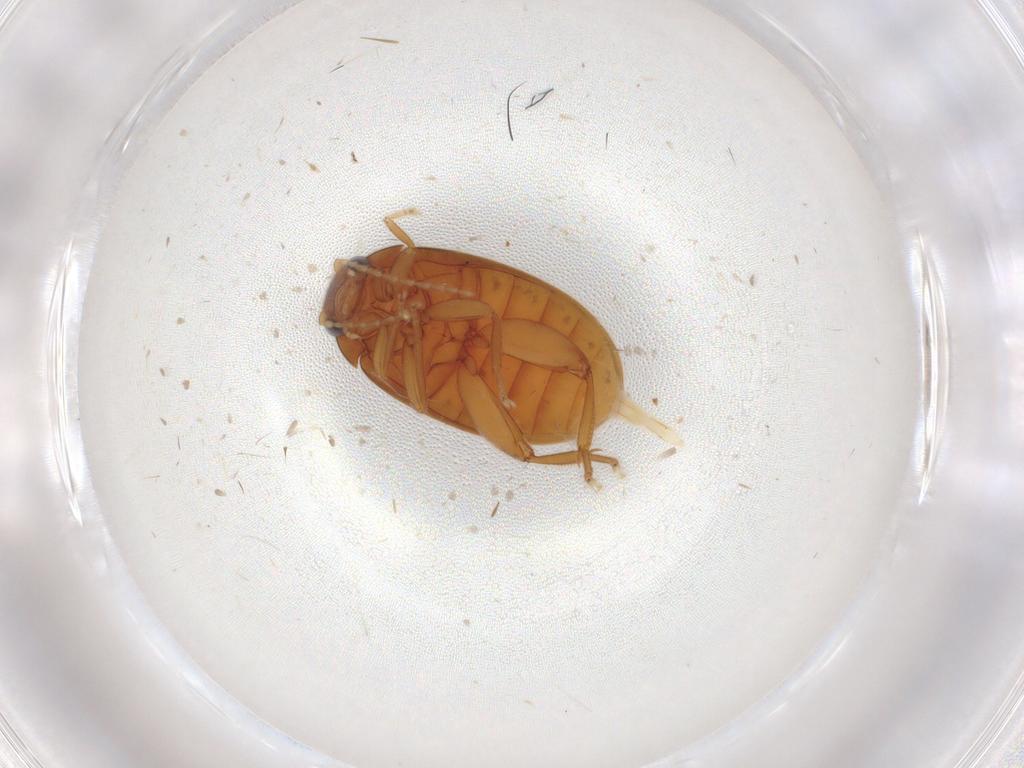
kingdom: Animalia
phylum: Arthropoda
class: Insecta
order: Coleoptera
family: Scirtidae
